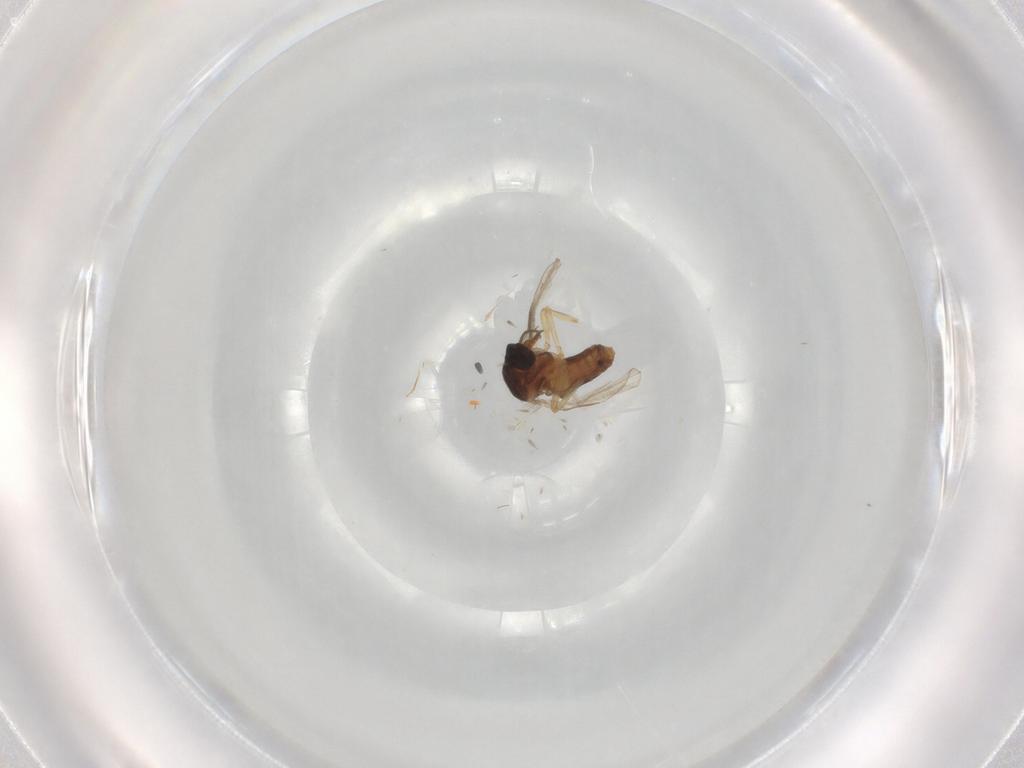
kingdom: Animalia
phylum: Arthropoda
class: Insecta
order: Diptera
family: Ceratopogonidae
